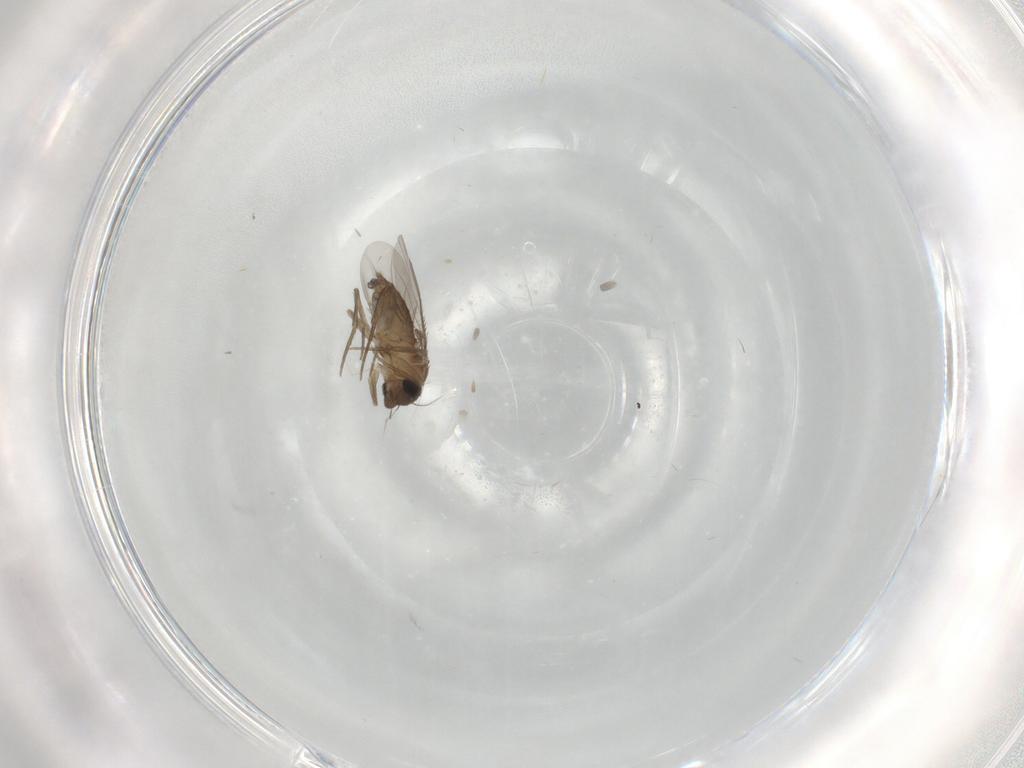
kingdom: Animalia
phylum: Arthropoda
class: Insecta
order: Diptera
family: Phoridae
